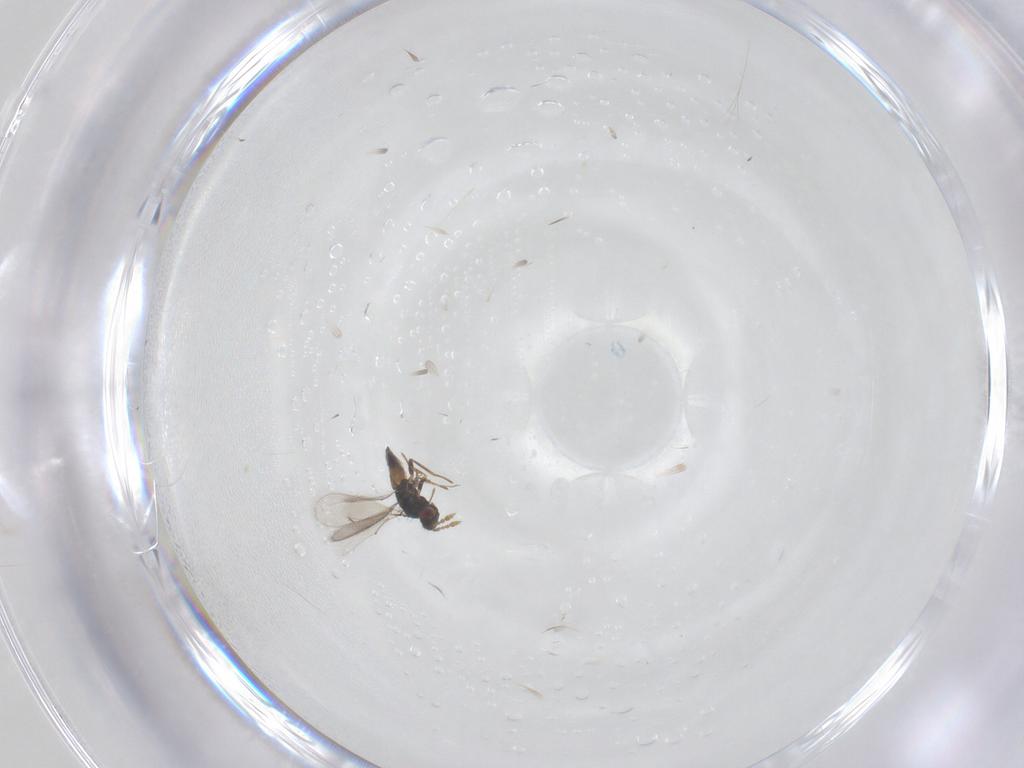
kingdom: Animalia
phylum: Arthropoda
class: Insecta
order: Hymenoptera
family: Eulophidae
